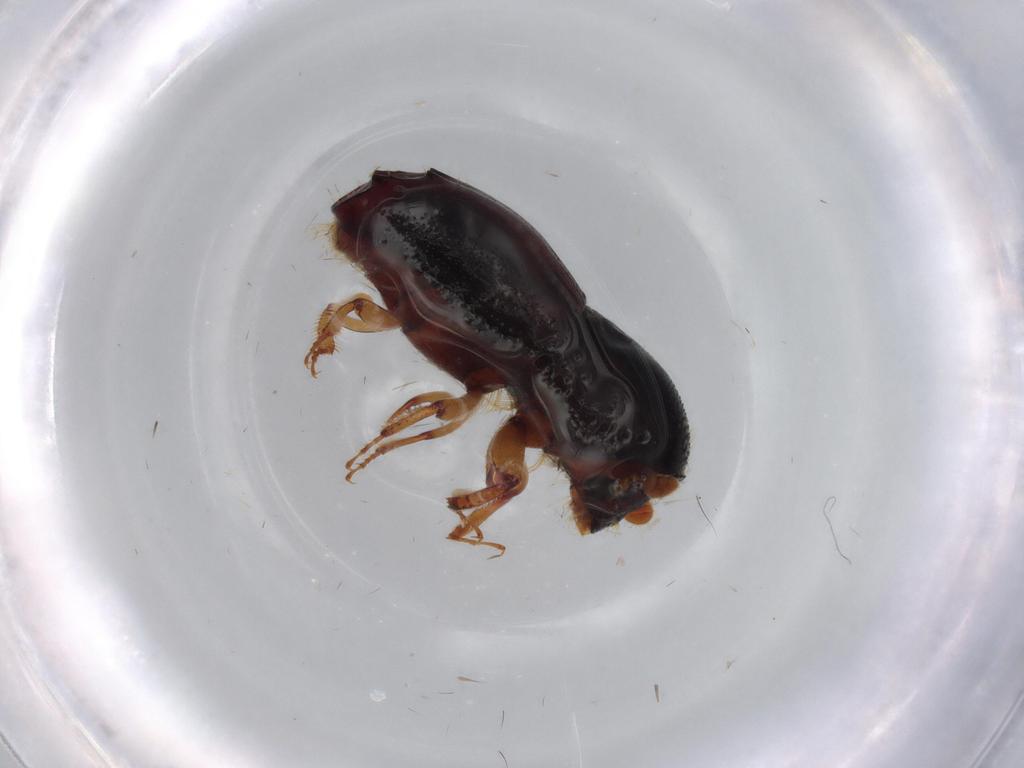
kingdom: Animalia
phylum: Arthropoda
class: Insecta
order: Coleoptera
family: Curculionidae
